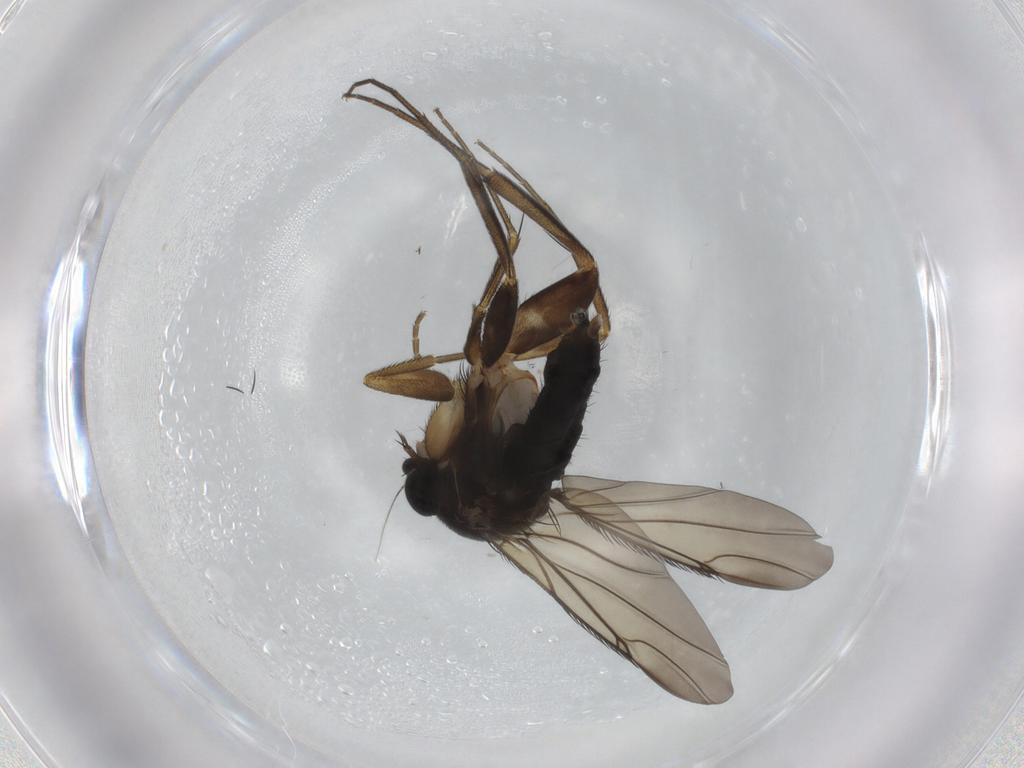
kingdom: Animalia
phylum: Arthropoda
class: Insecta
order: Diptera
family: Phoridae
